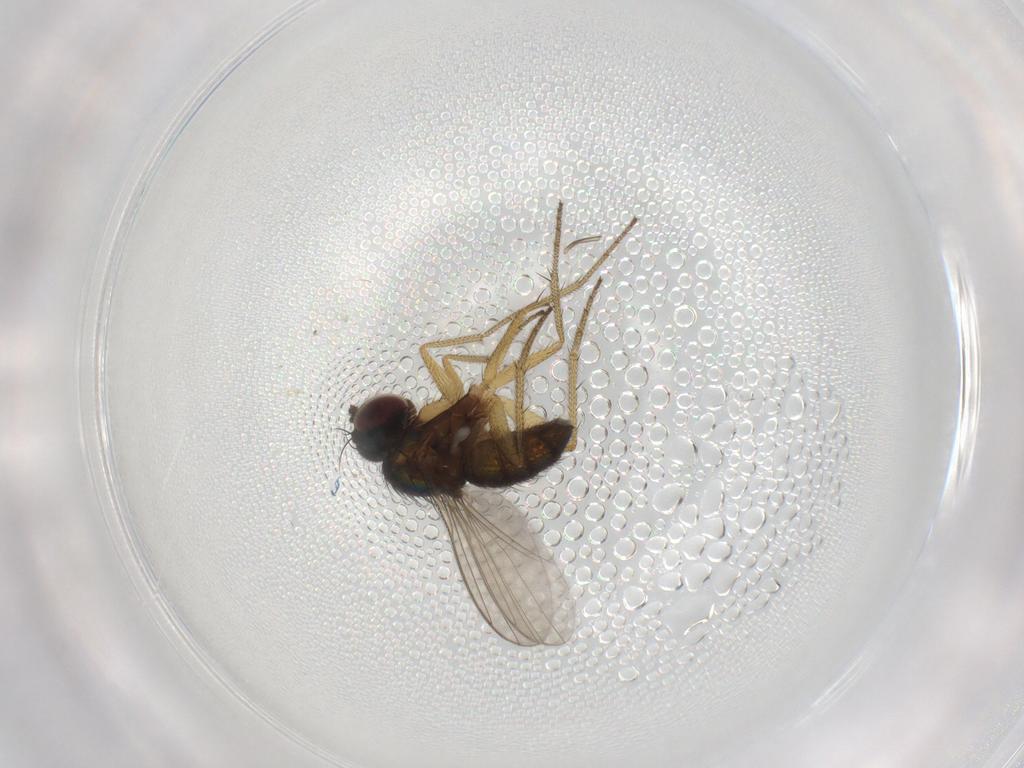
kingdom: Animalia
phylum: Arthropoda
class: Insecta
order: Diptera
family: Chironomidae
